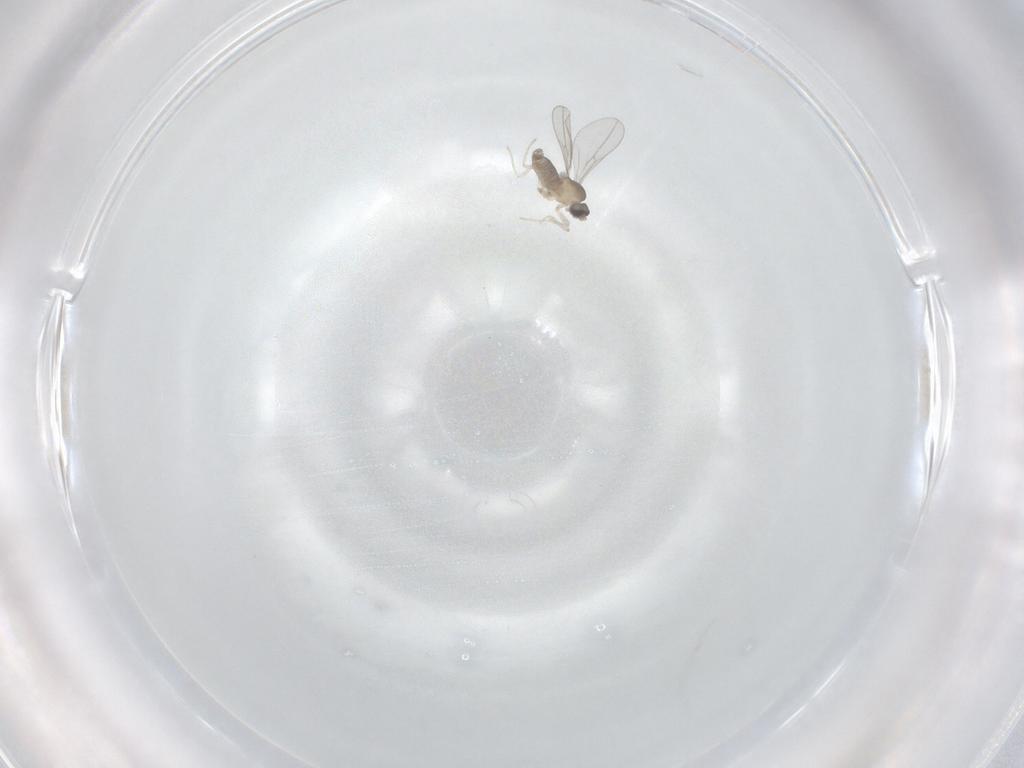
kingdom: Animalia
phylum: Arthropoda
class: Insecta
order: Diptera
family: Cecidomyiidae
